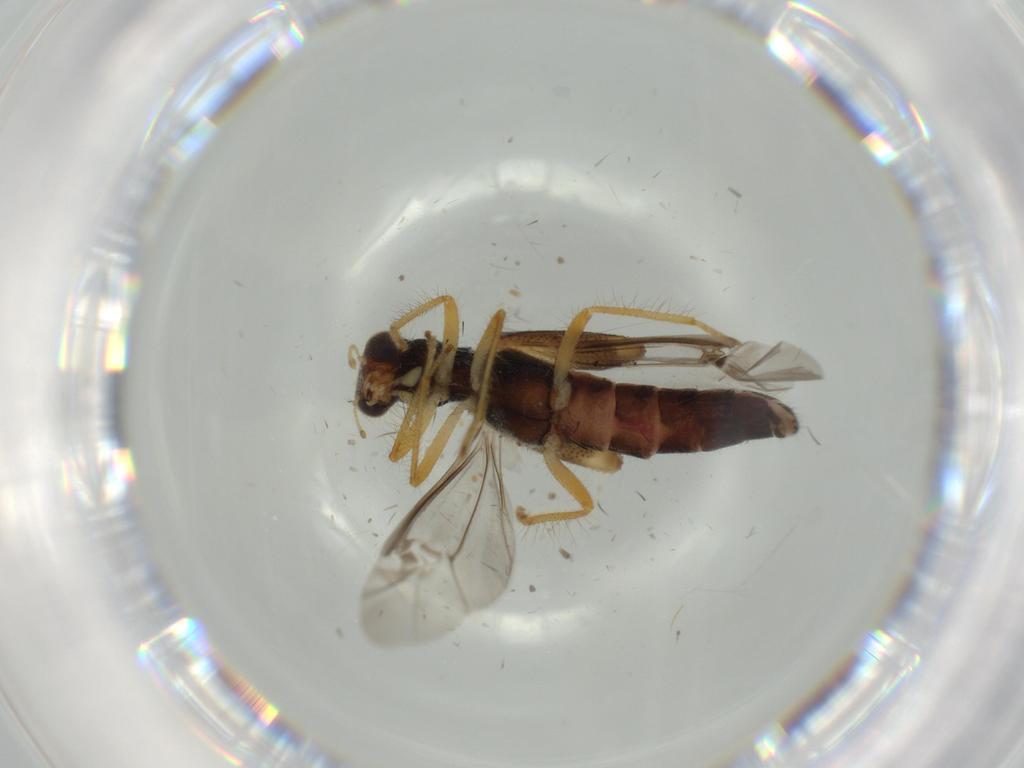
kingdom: Animalia
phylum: Arthropoda
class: Insecta
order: Coleoptera
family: Cleridae
